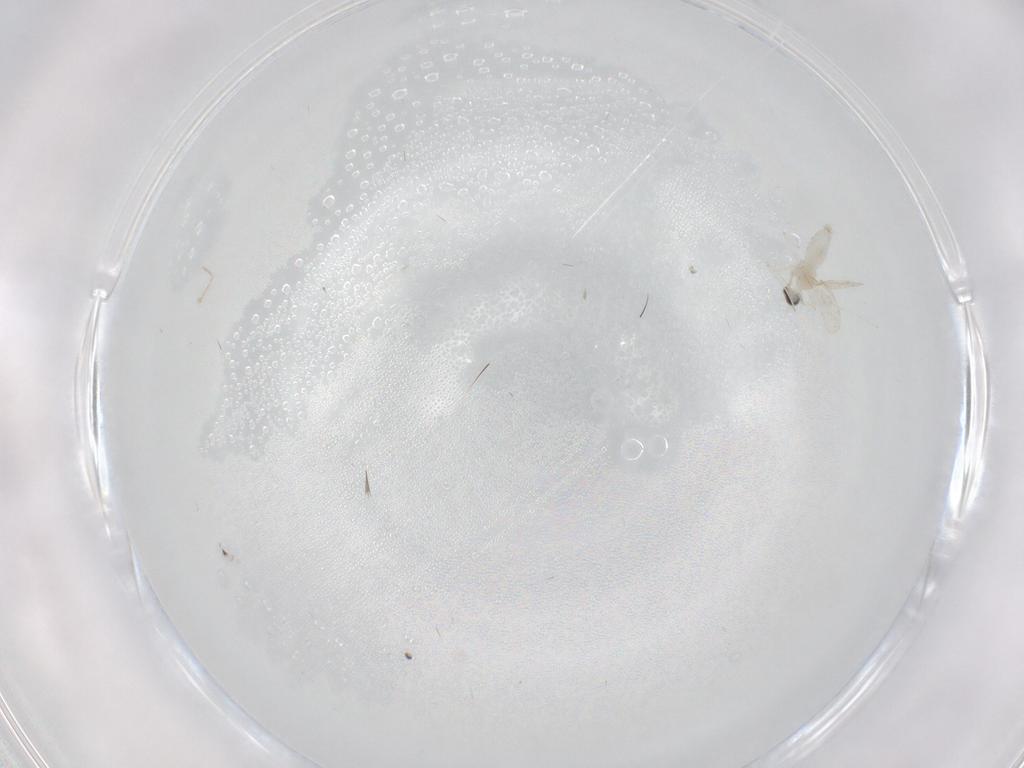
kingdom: Animalia
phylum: Arthropoda
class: Insecta
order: Diptera
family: Cecidomyiidae
